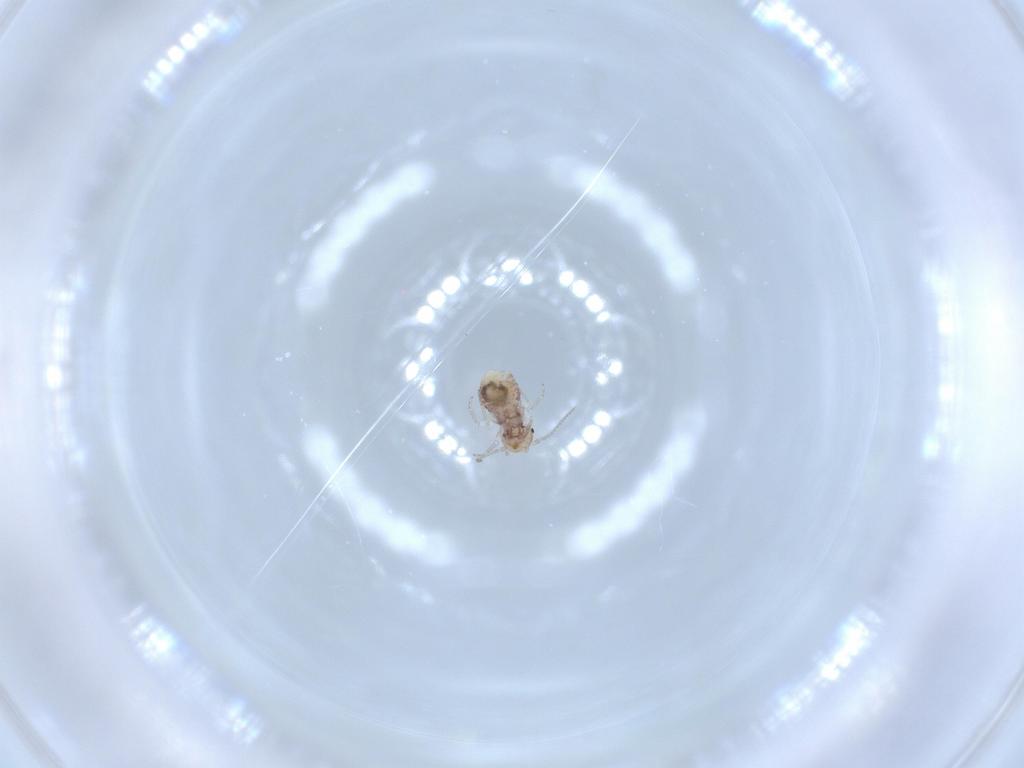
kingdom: Animalia
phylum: Arthropoda
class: Insecta
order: Psocodea
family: Ectopsocidae
